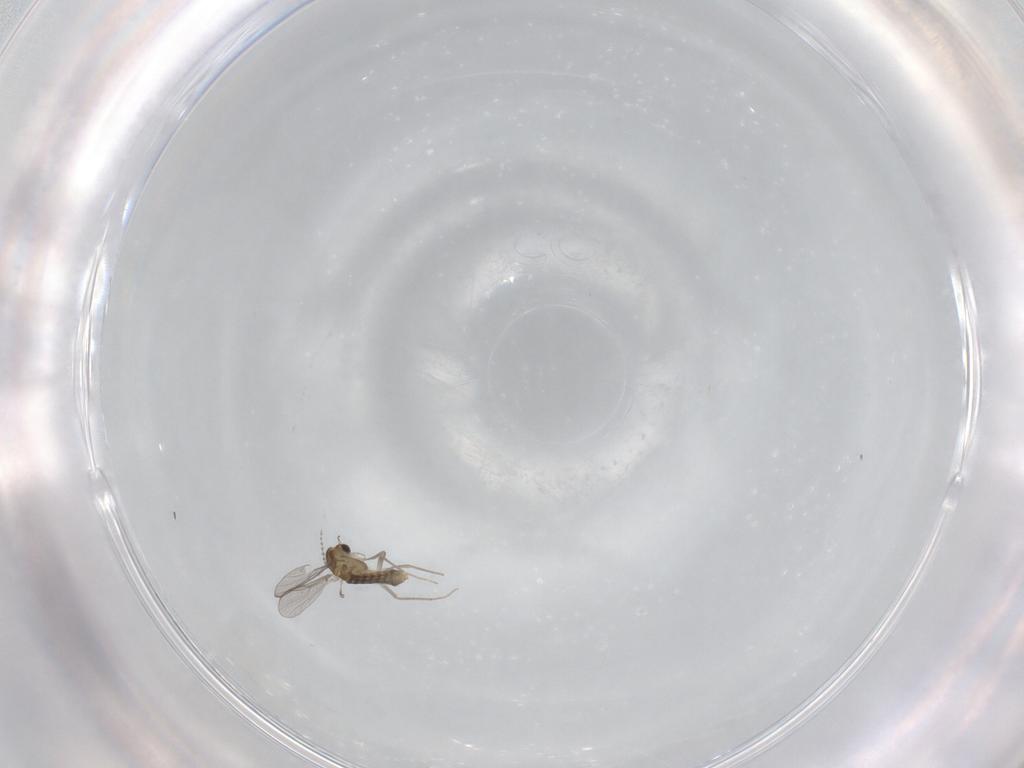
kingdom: Animalia
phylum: Arthropoda
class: Insecta
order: Diptera
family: Chironomidae
